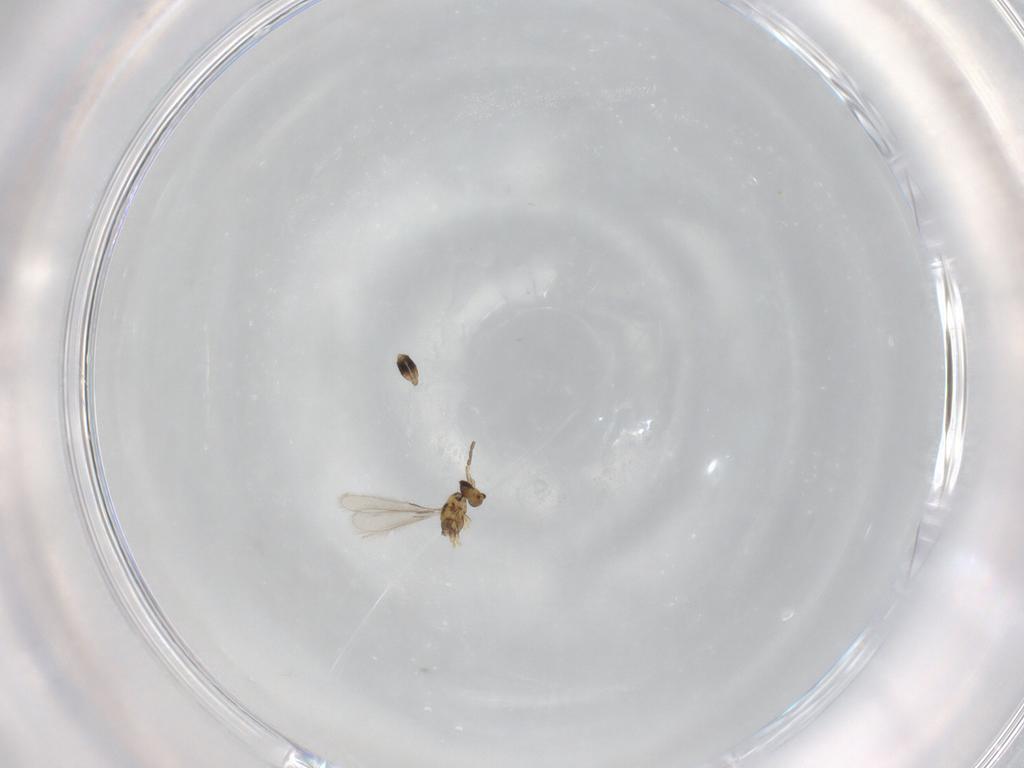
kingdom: Animalia
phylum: Arthropoda
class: Insecta
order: Hymenoptera
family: Mymaridae
